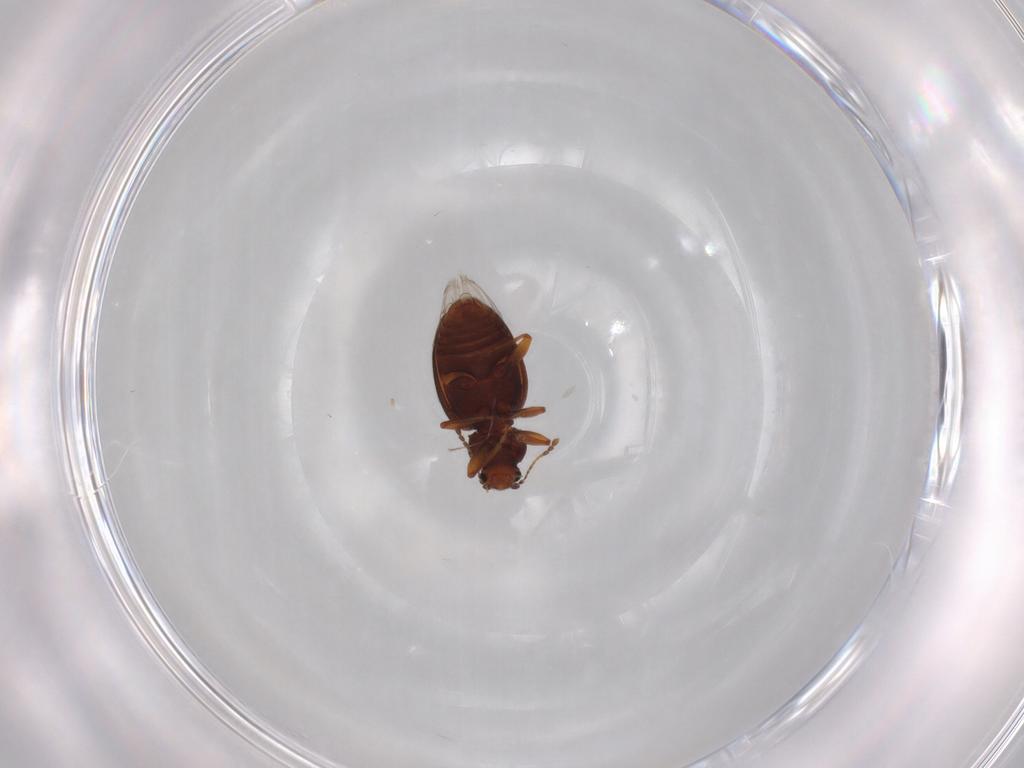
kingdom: Animalia
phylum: Arthropoda
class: Insecta
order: Coleoptera
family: Latridiidae
